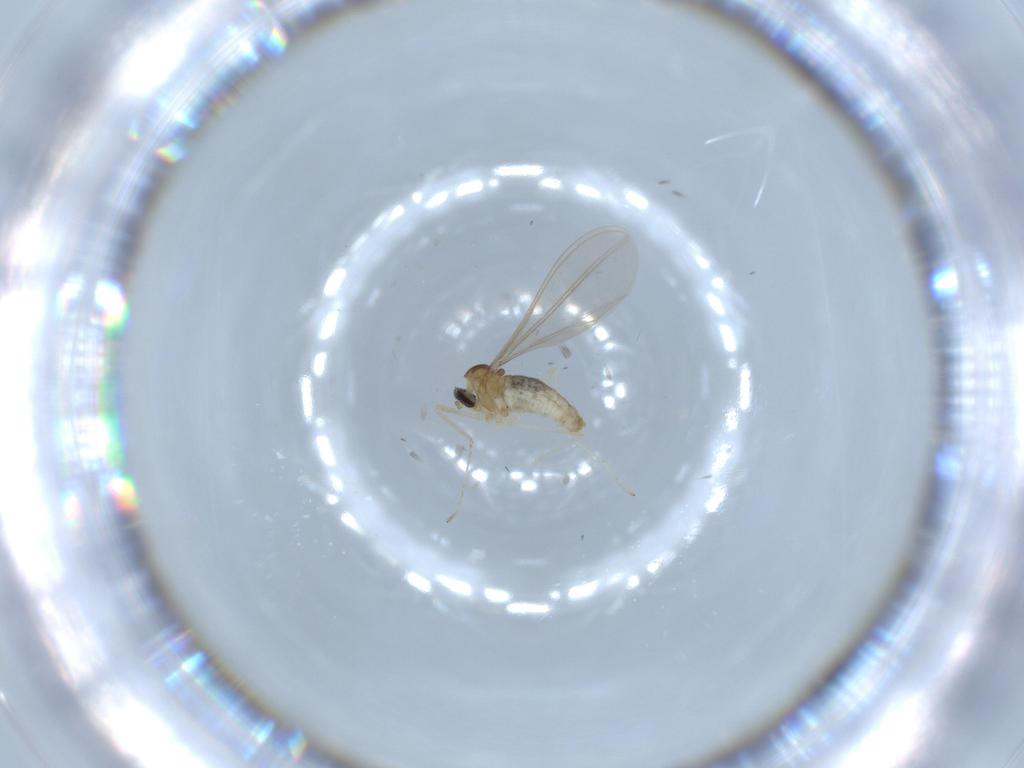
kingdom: Animalia
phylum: Arthropoda
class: Insecta
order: Diptera
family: Cecidomyiidae
